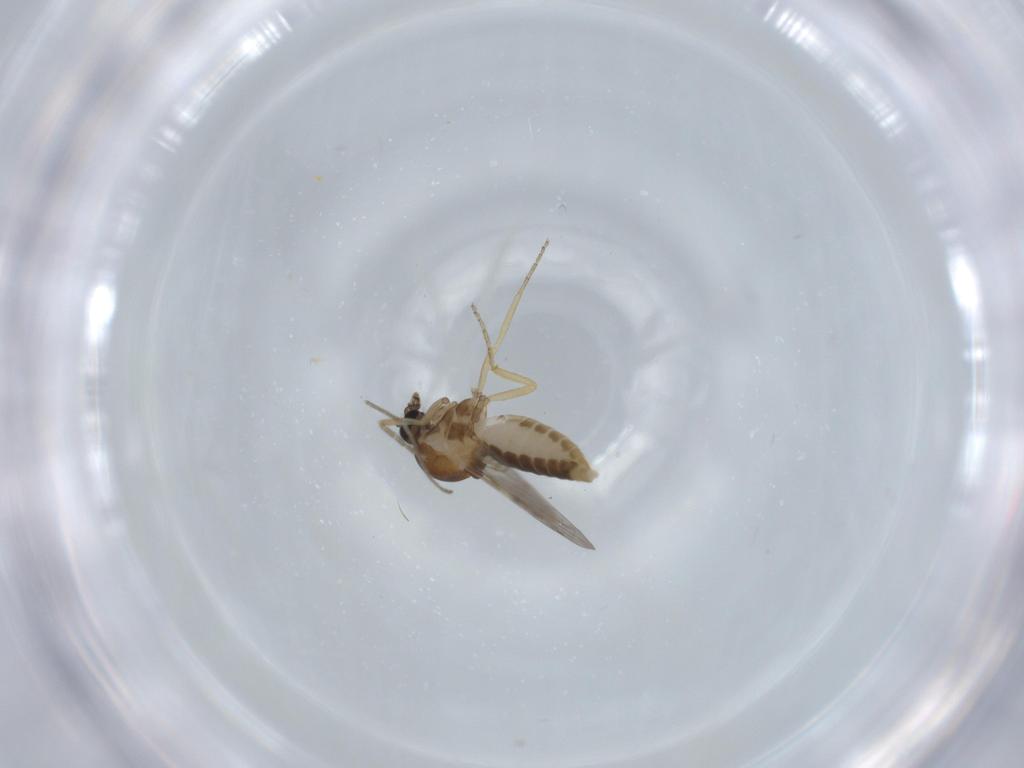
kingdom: Animalia
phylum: Arthropoda
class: Insecta
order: Diptera
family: Ceratopogonidae
